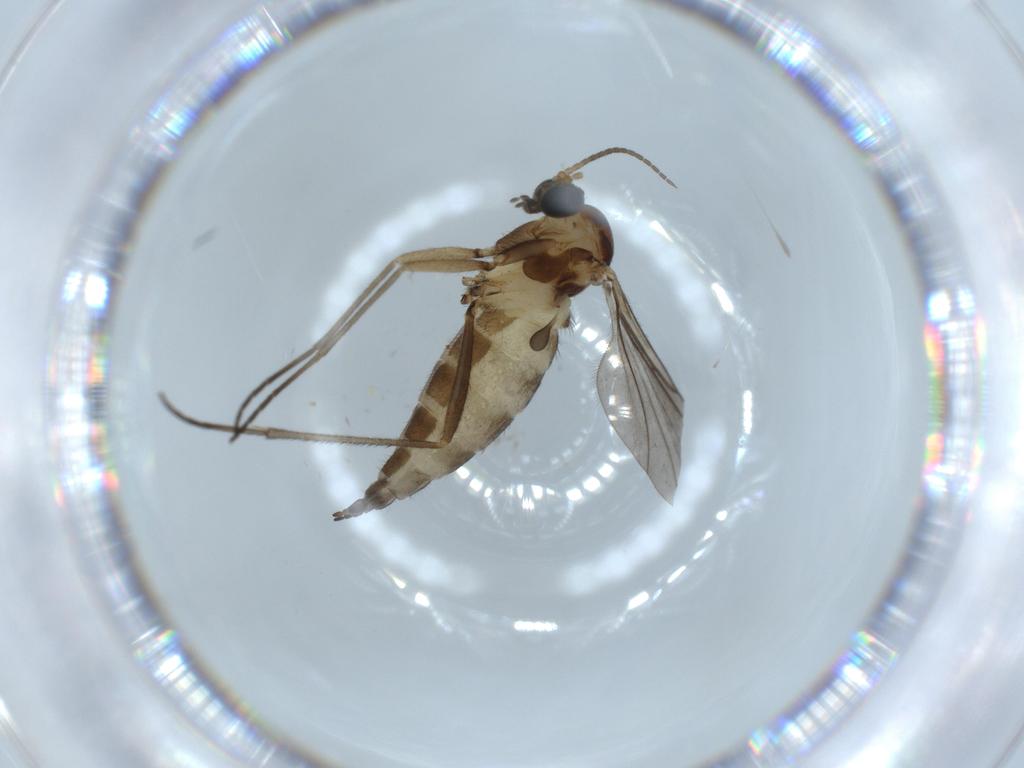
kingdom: Animalia
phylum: Arthropoda
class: Insecta
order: Diptera
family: Sciaridae
